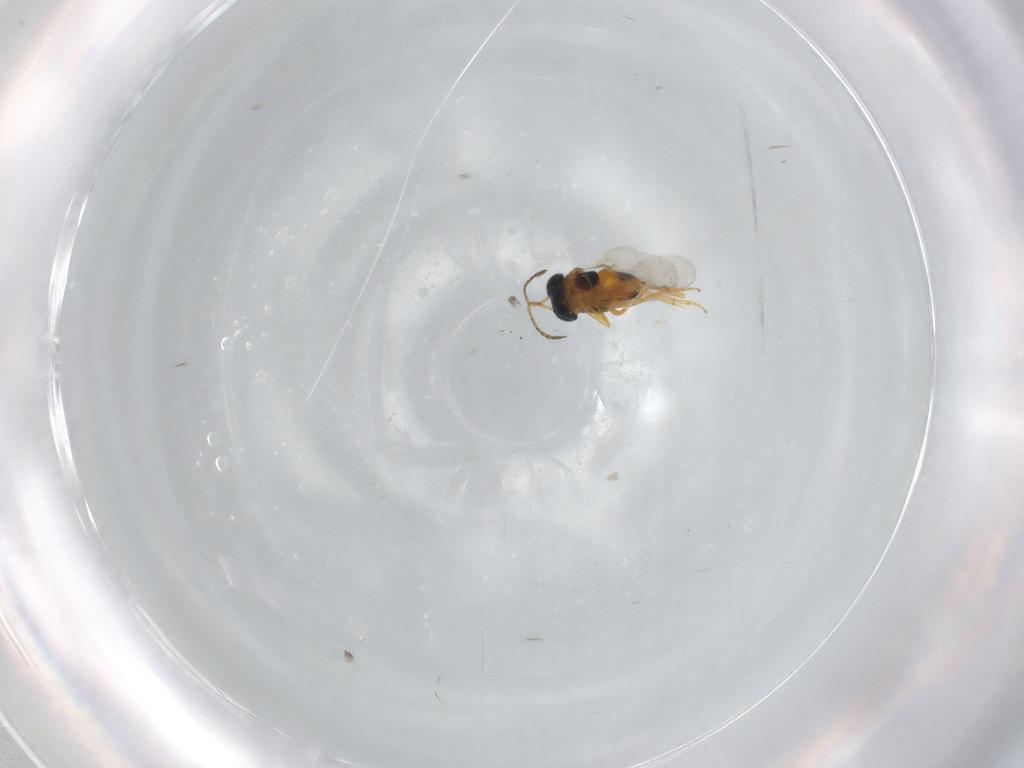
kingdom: Animalia
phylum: Arthropoda
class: Insecta
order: Hymenoptera
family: Encyrtidae
